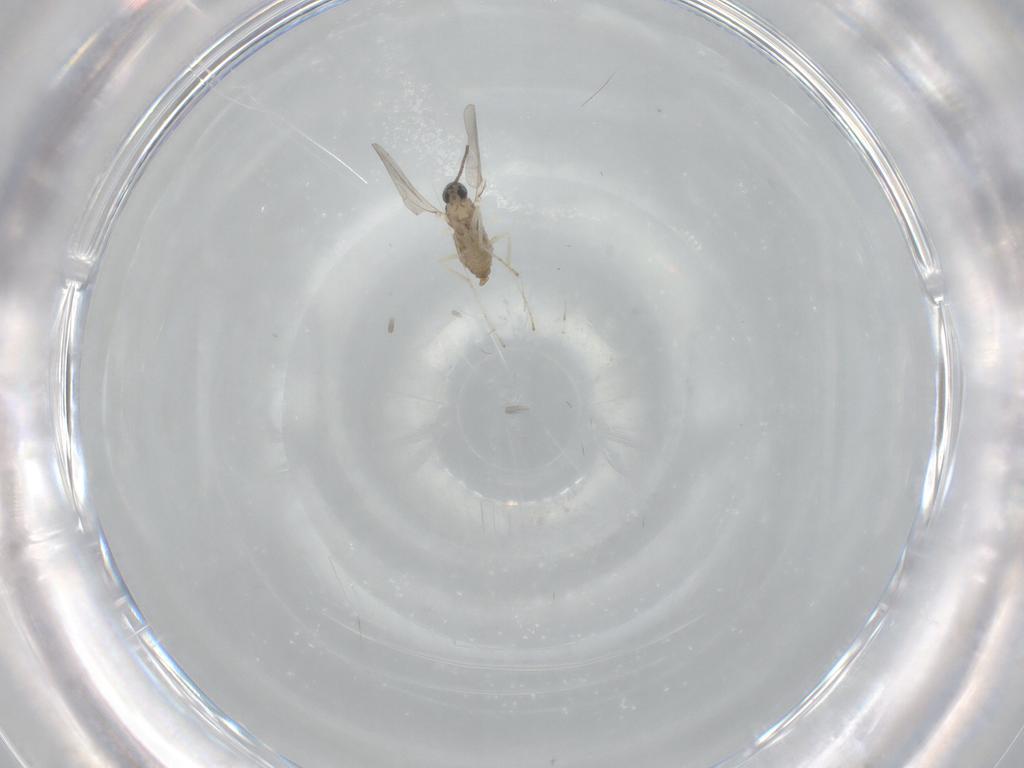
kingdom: Animalia
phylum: Arthropoda
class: Insecta
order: Diptera
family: Cecidomyiidae
